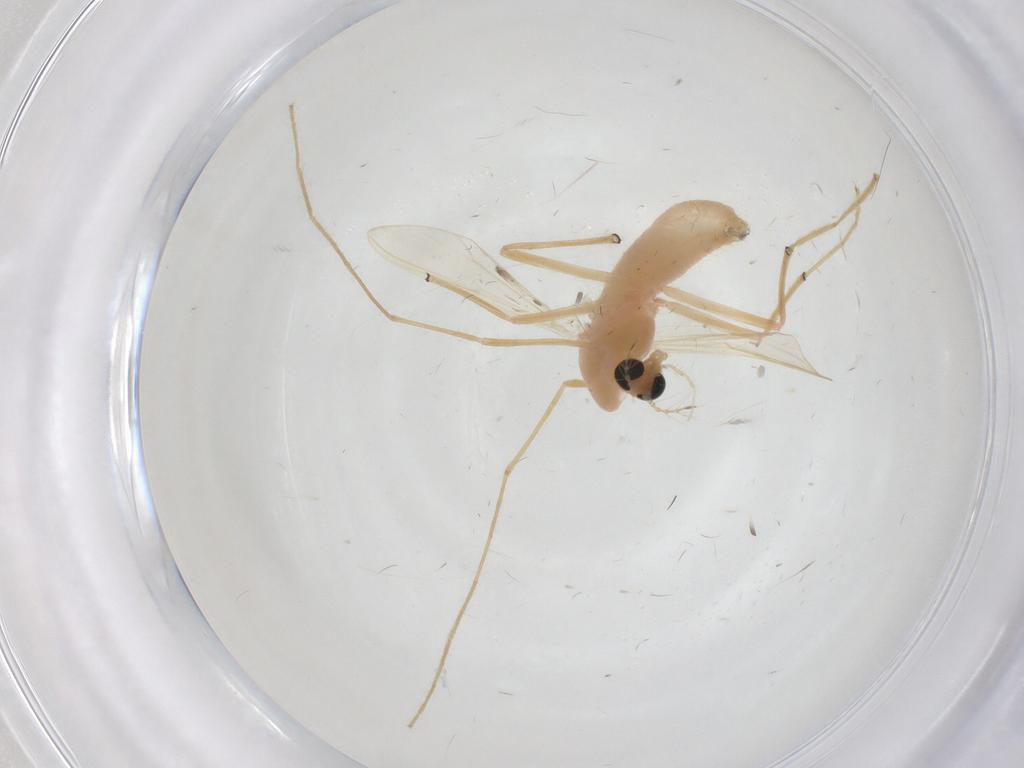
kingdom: Animalia
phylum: Arthropoda
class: Insecta
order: Diptera
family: Chironomidae
